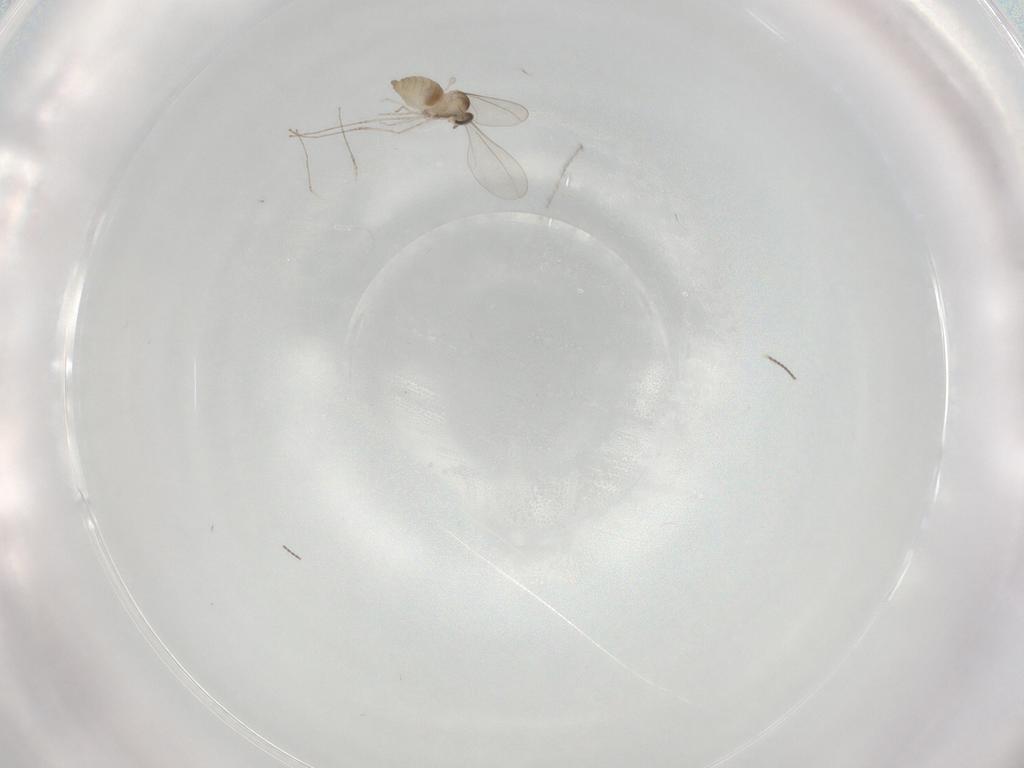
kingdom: Animalia
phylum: Arthropoda
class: Insecta
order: Diptera
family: Cecidomyiidae
